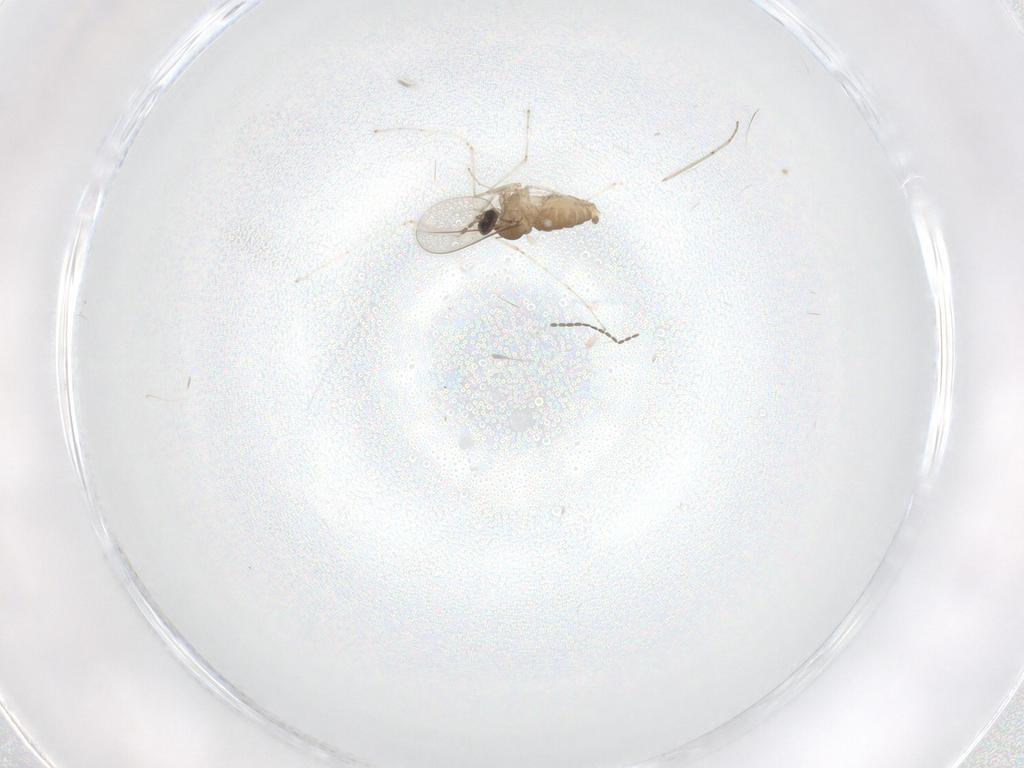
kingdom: Animalia
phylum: Arthropoda
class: Insecta
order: Diptera
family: Cecidomyiidae
